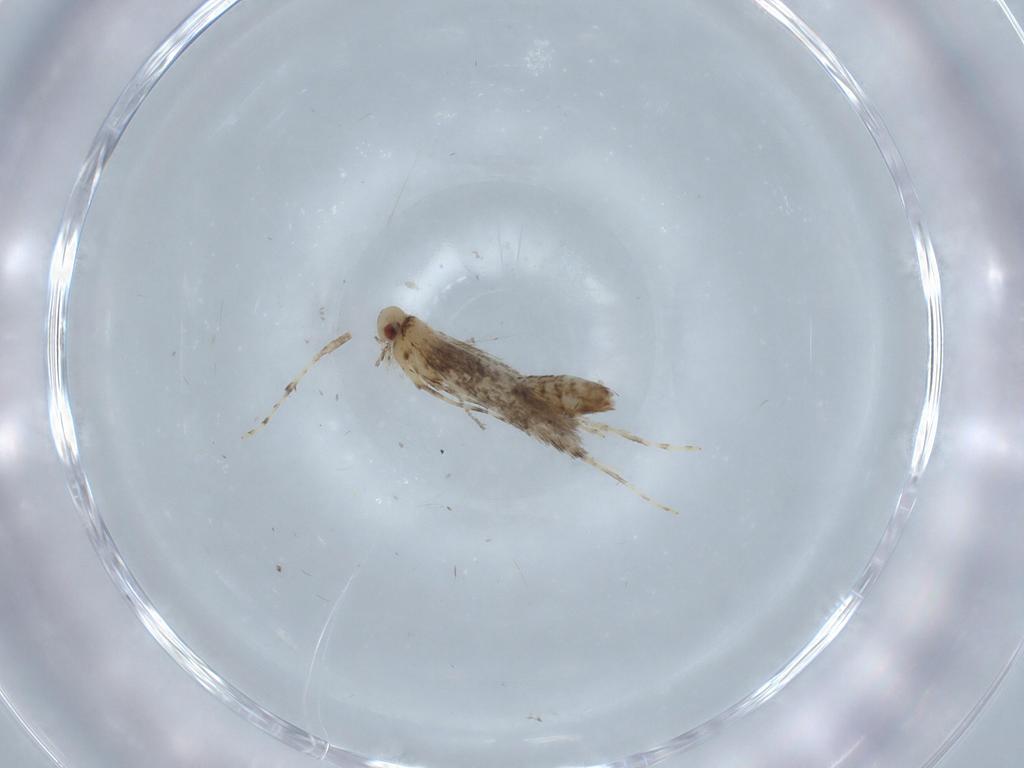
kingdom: Animalia
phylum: Arthropoda
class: Insecta
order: Lepidoptera
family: Gracillariidae
